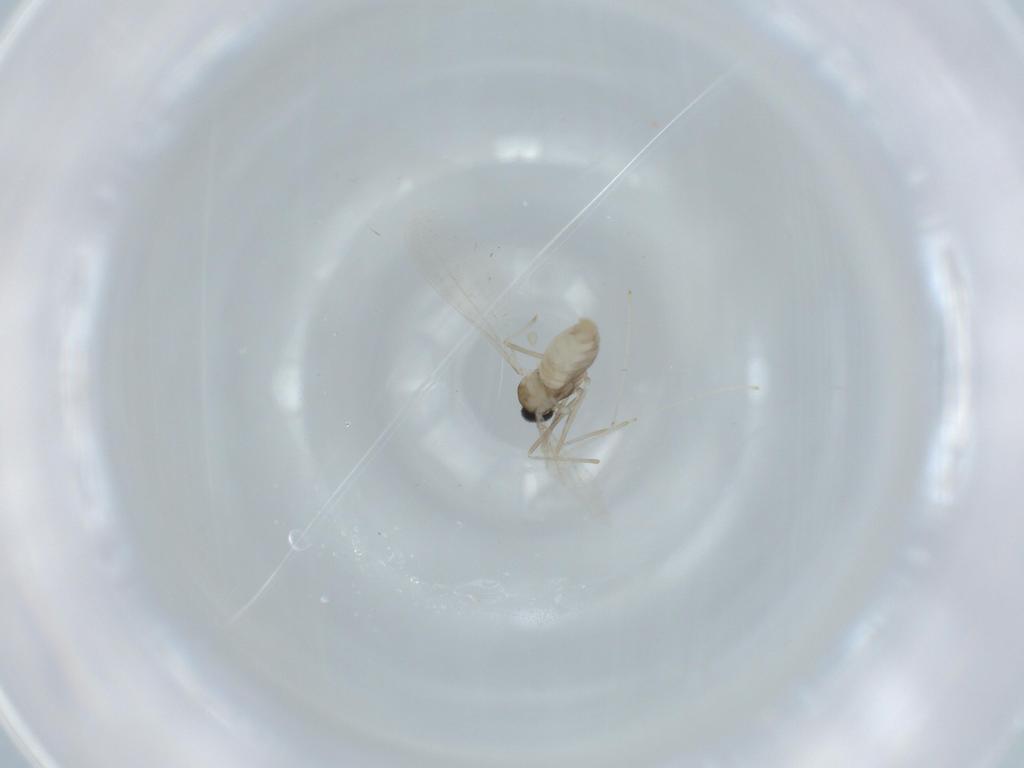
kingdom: Animalia
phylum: Arthropoda
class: Insecta
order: Diptera
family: Cecidomyiidae
